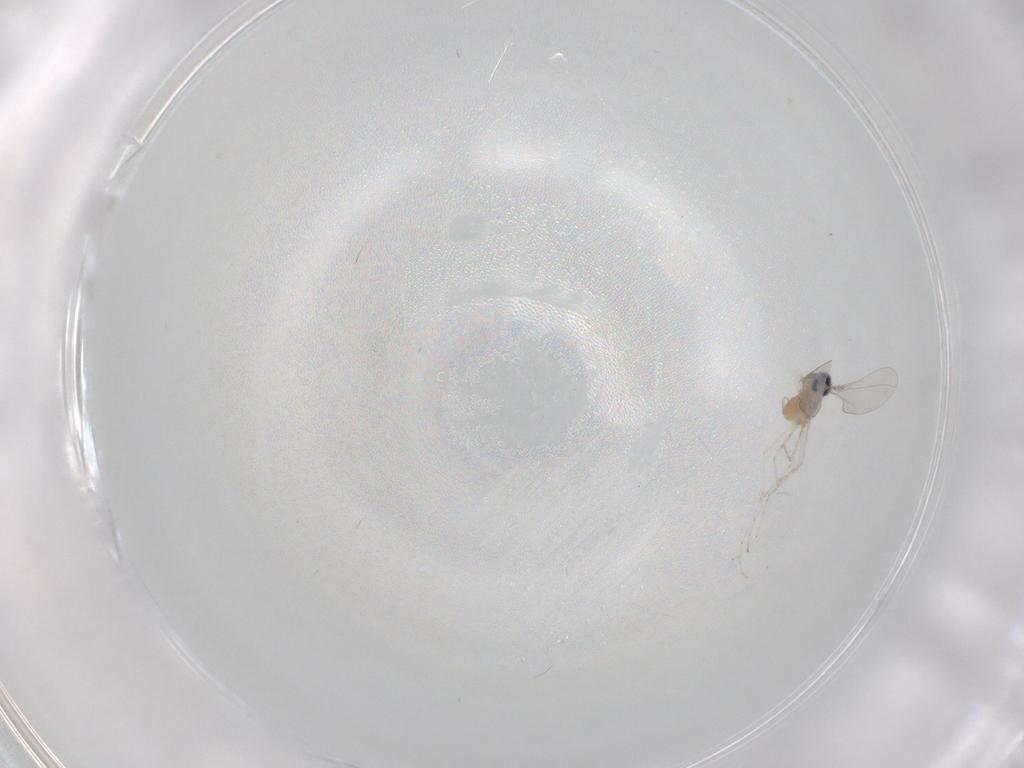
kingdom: Animalia
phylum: Arthropoda
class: Insecta
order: Diptera
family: Cecidomyiidae
